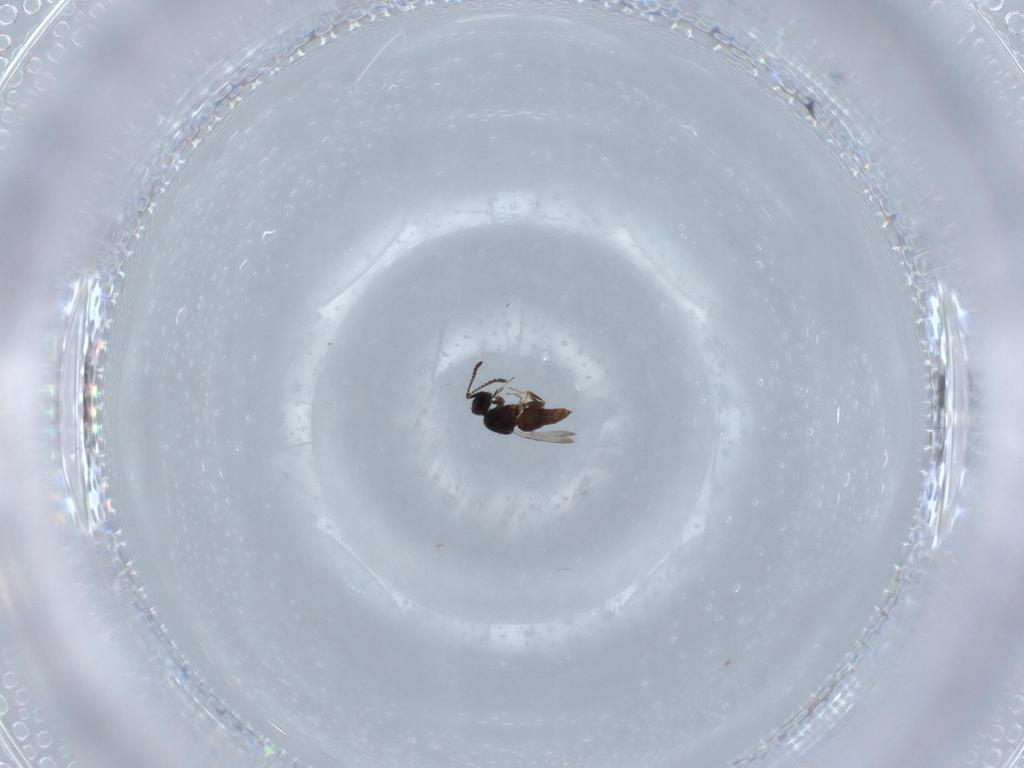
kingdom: Animalia
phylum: Arthropoda
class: Insecta
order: Hymenoptera
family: Ceraphronidae
